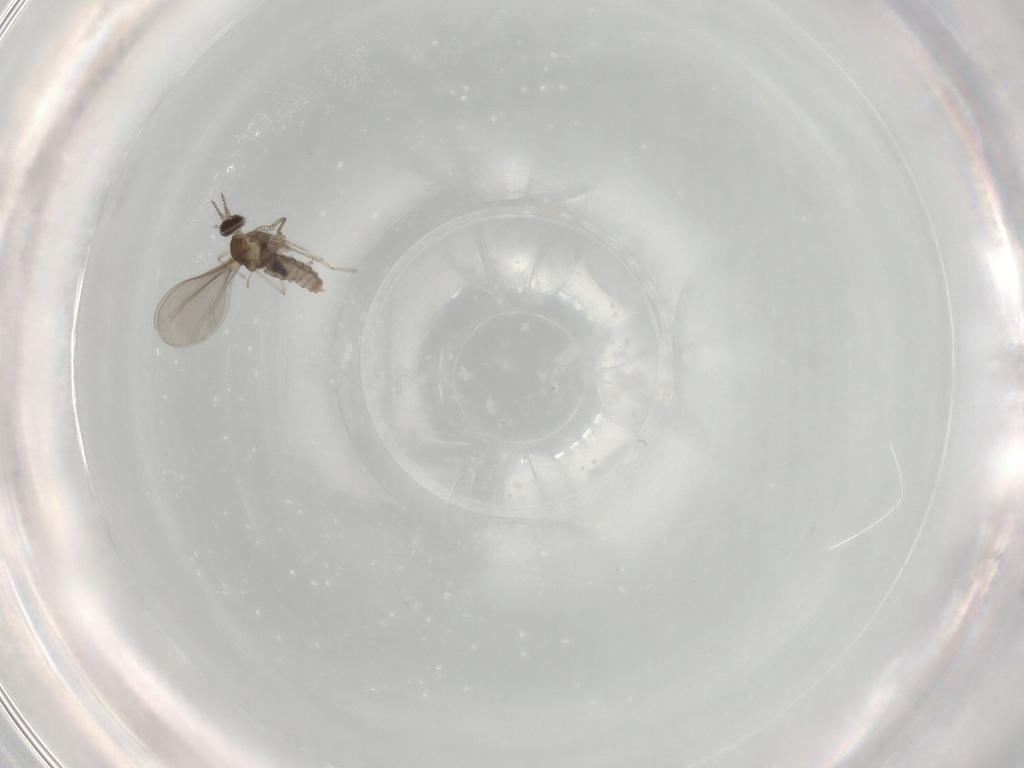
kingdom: Animalia
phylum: Arthropoda
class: Insecta
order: Diptera
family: Cecidomyiidae
